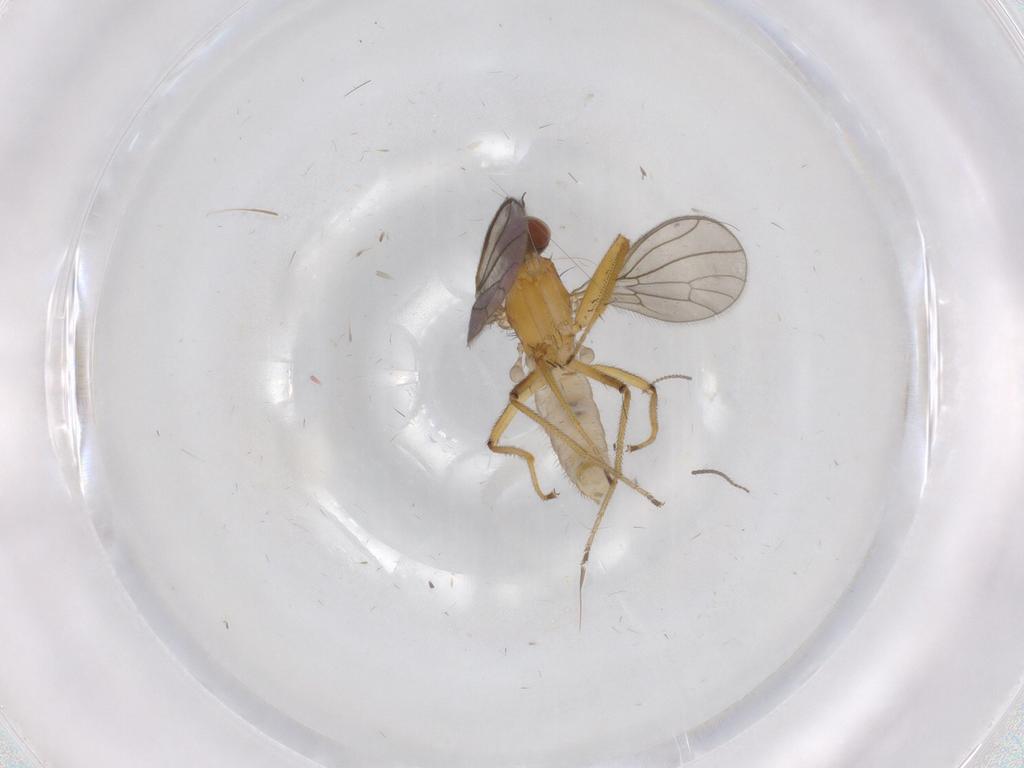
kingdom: Animalia
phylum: Arthropoda
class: Insecta
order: Diptera
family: Empididae
